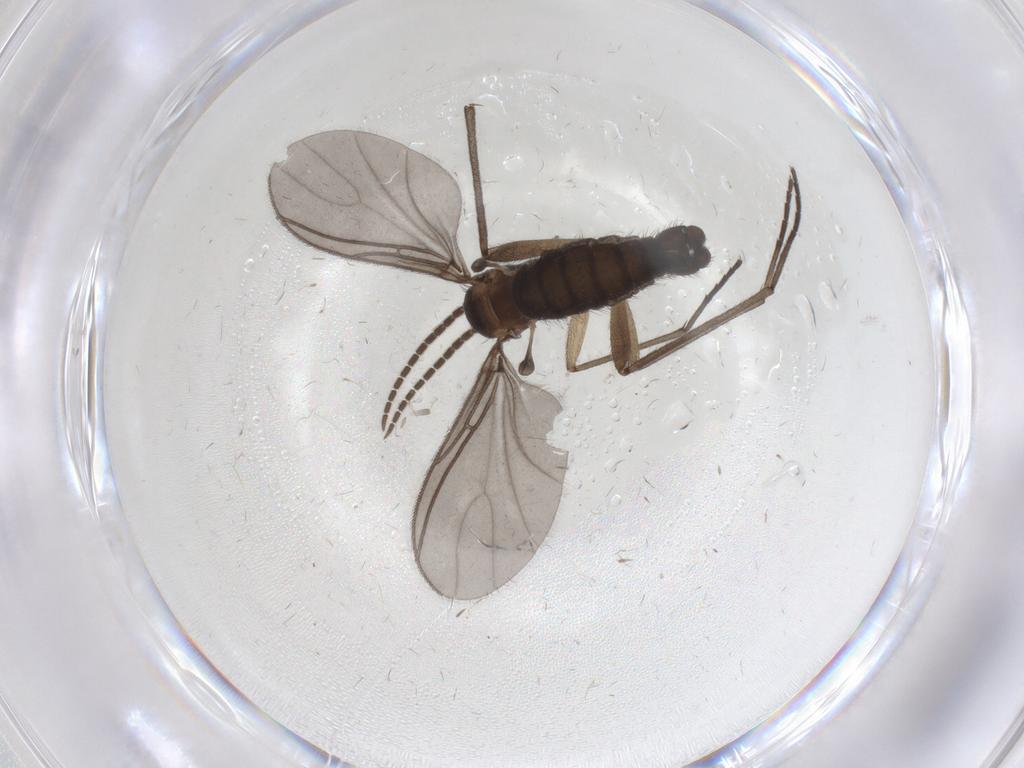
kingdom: Animalia
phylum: Arthropoda
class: Insecta
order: Diptera
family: Sciaridae
